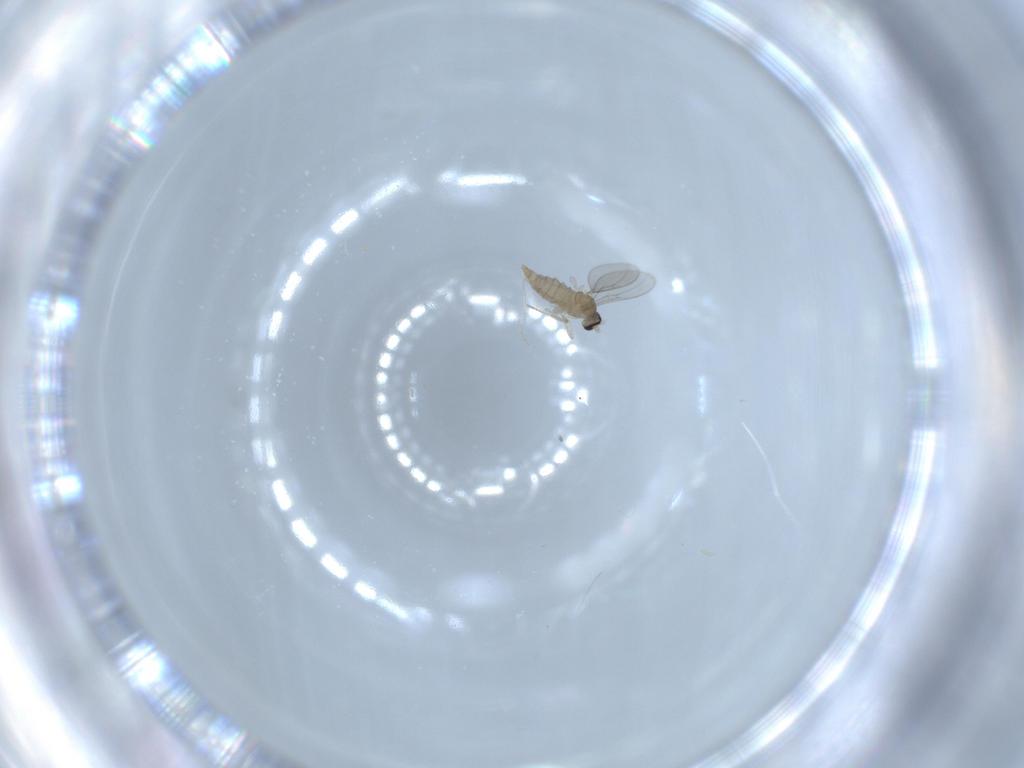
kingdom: Animalia
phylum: Arthropoda
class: Insecta
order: Diptera
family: Cecidomyiidae
